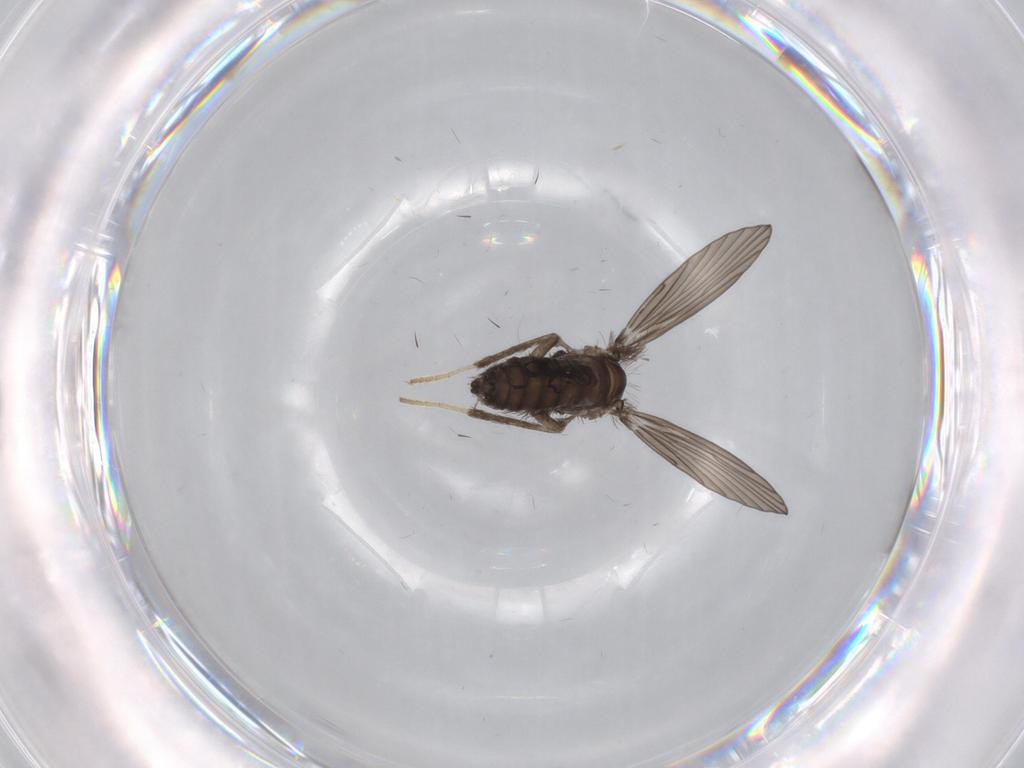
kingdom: Animalia
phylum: Arthropoda
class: Insecta
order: Diptera
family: Psychodidae
